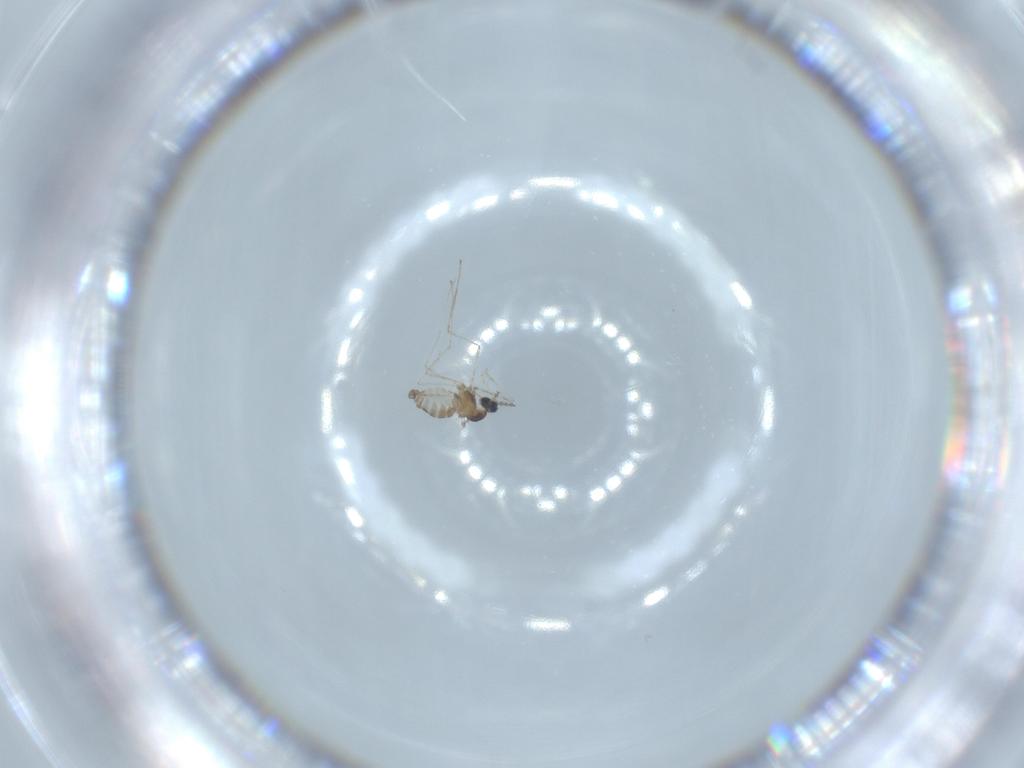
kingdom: Animalia
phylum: Arthropoda
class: Insecta
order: Diptera
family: Cecidomyiidae
